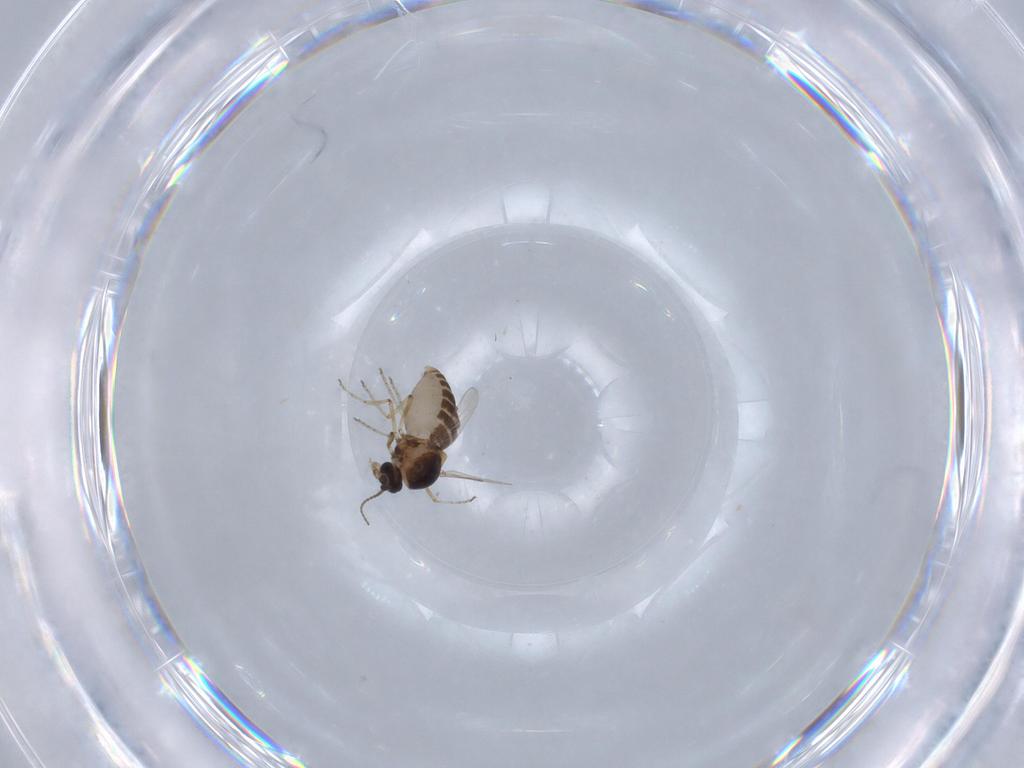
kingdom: Animalia
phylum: Arthropoda
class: Insecta
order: Diptera
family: Ceratopogonidae
